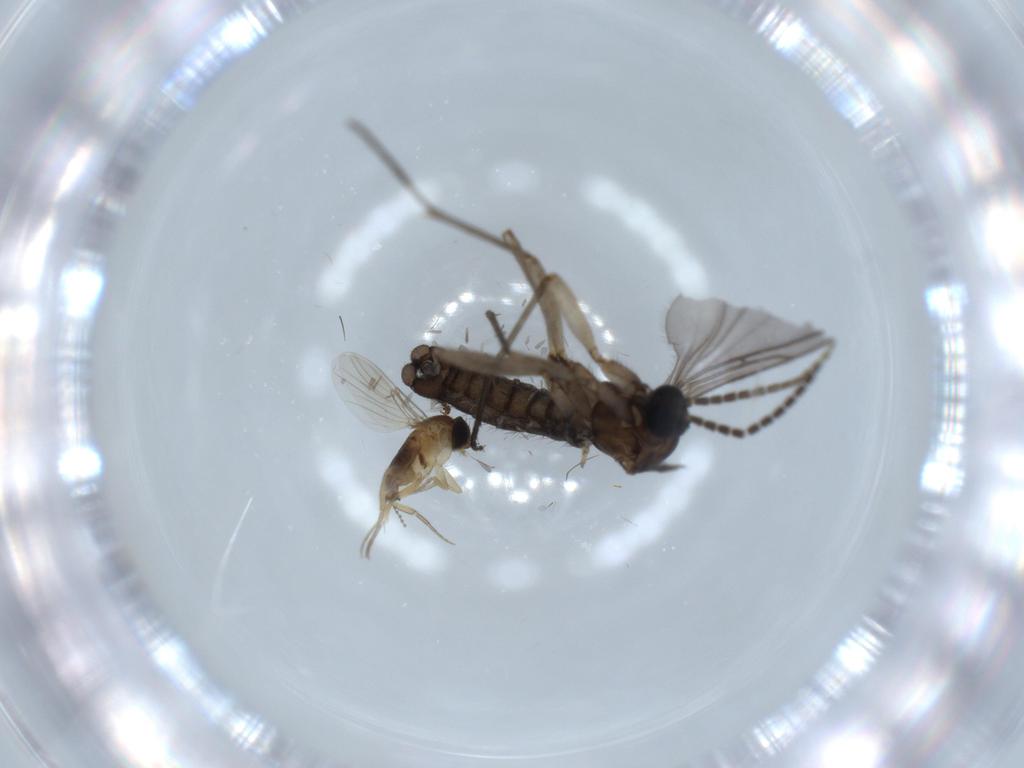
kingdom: Animalia
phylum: Arthropoda
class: Insecta
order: Diptera
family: Sciaridae
